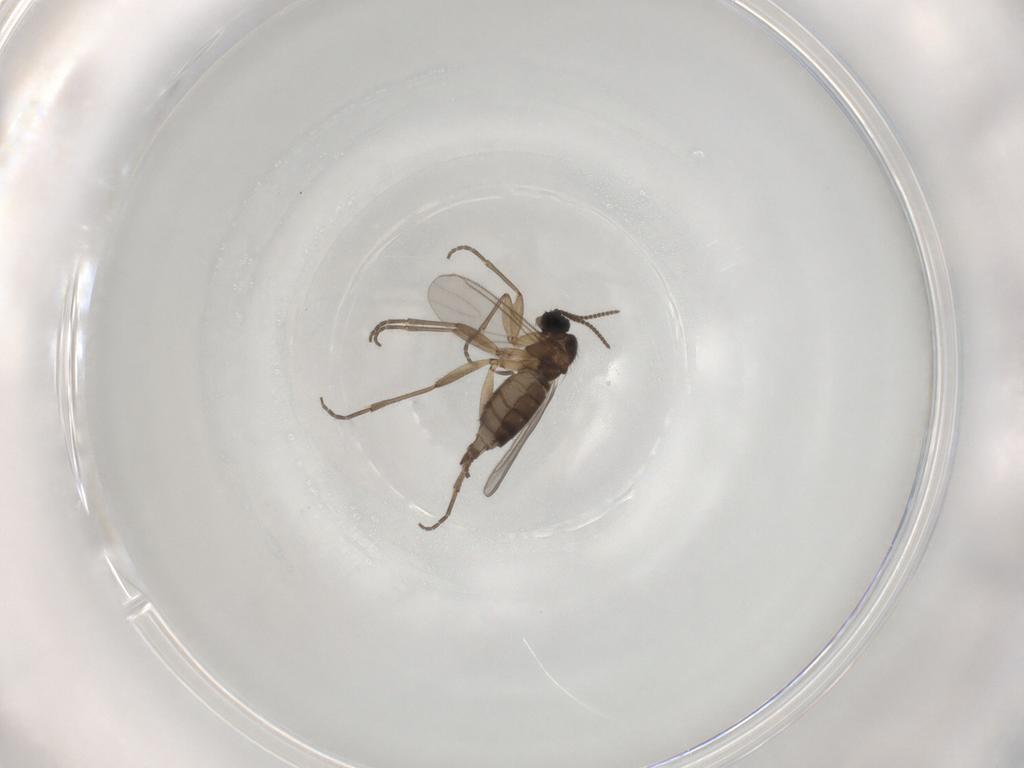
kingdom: Animalia
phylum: Arthropoda
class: Insecta
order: Diptera
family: Sciaridae
